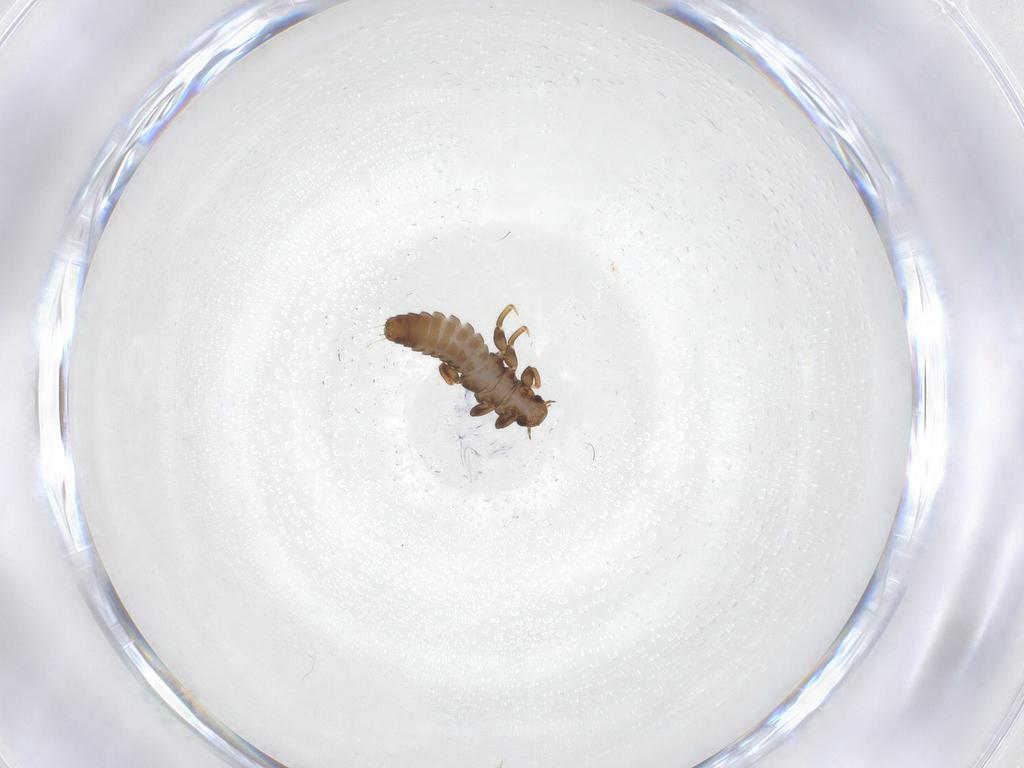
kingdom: Animalia
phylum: Arthropoda
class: Insecta
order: Coleoptera
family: Meloidae
